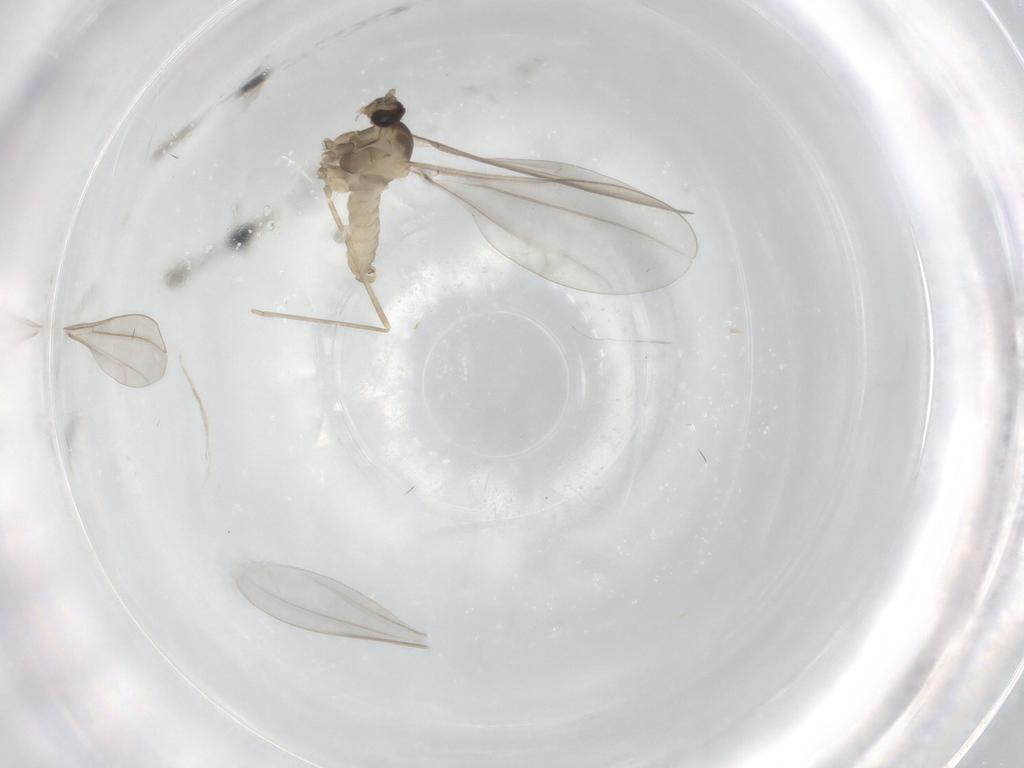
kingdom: Animalia
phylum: Arthropoda
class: Insecta
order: Diptera
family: Cecidomyiidae
